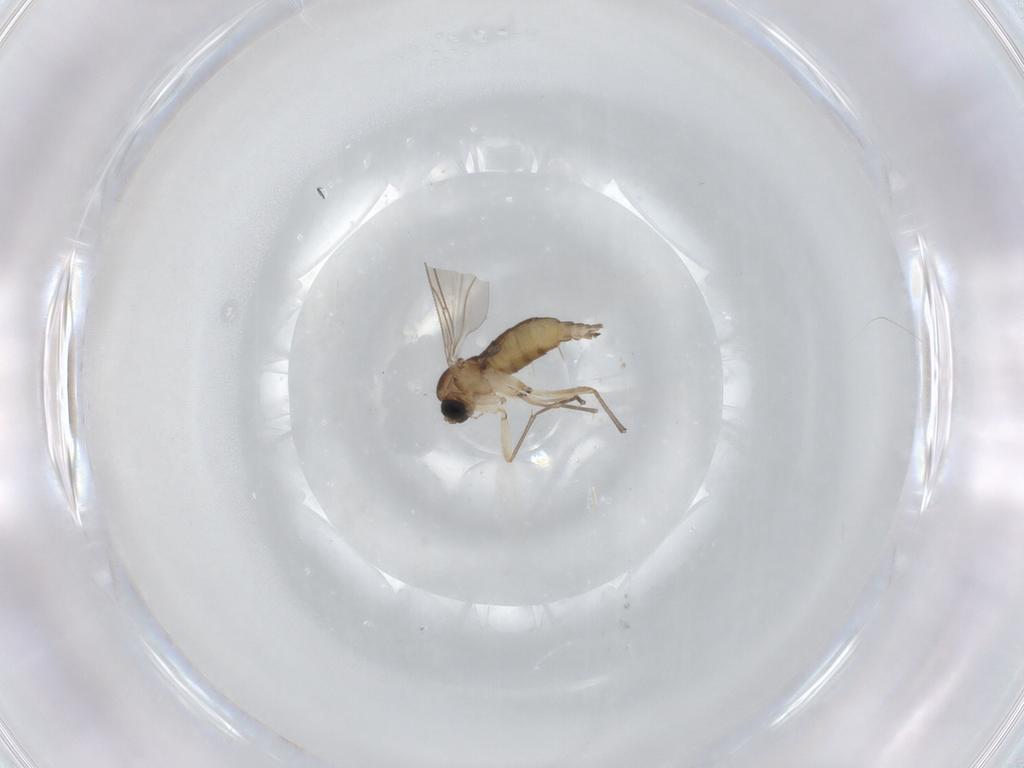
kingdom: Animalia
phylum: Arthropoda
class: Insecta
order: Diptera
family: Sciaridae
